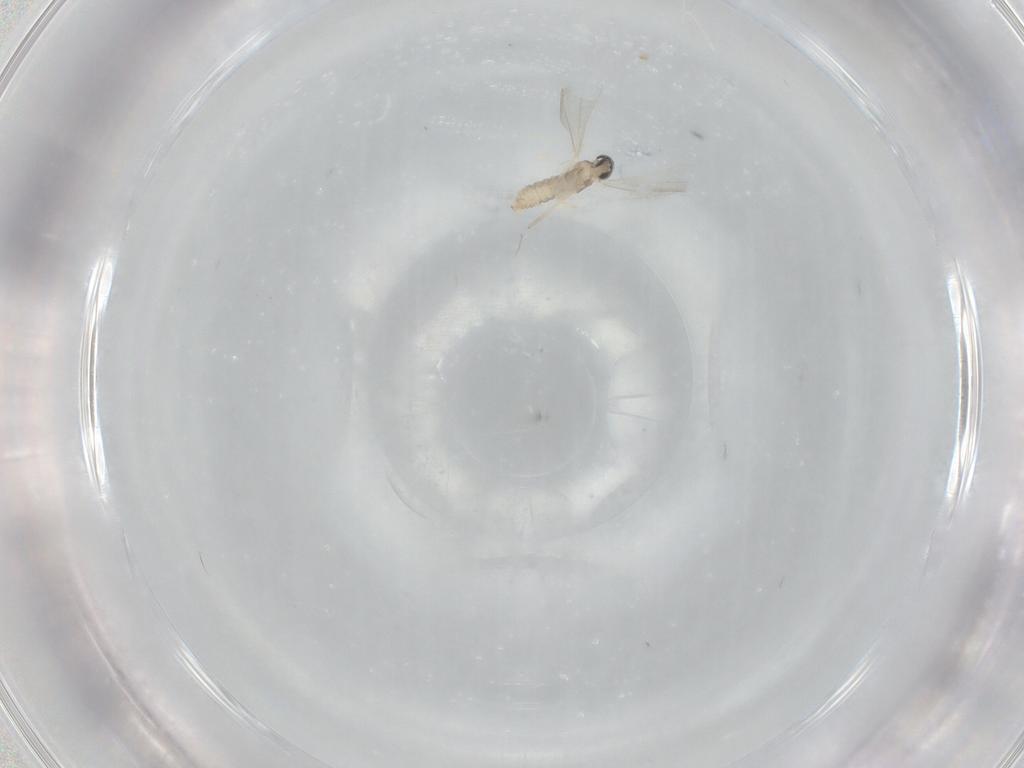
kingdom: Animalia
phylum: Arthropoda
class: Insecta
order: Diptera
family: Cecidomyiidae
